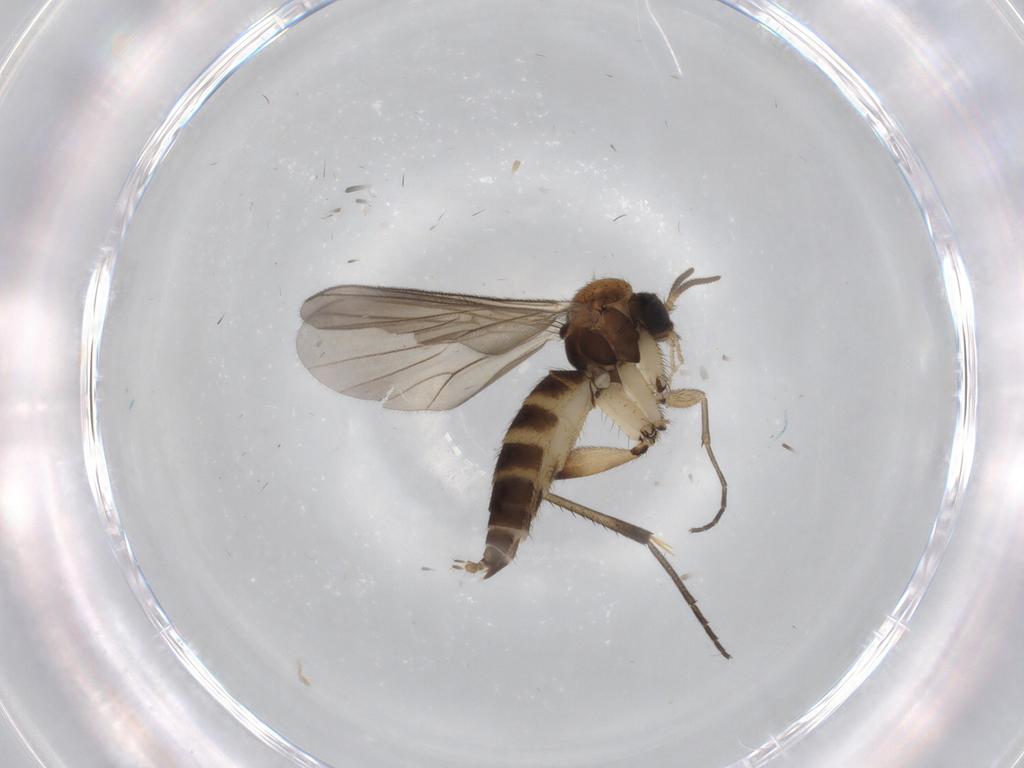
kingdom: Animalia
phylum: Arthropoda
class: Insecta
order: Diptera
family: Mycetophilidae
